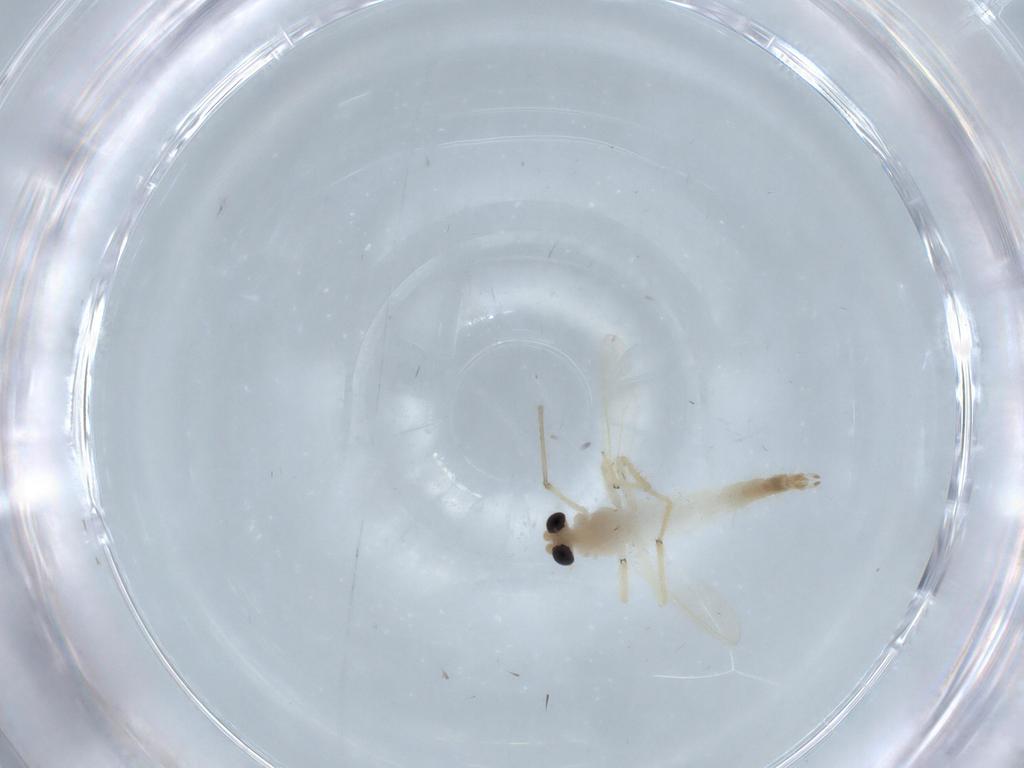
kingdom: Animalia
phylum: Arthropoda
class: Insecta
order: Diptera
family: Chironomidae
